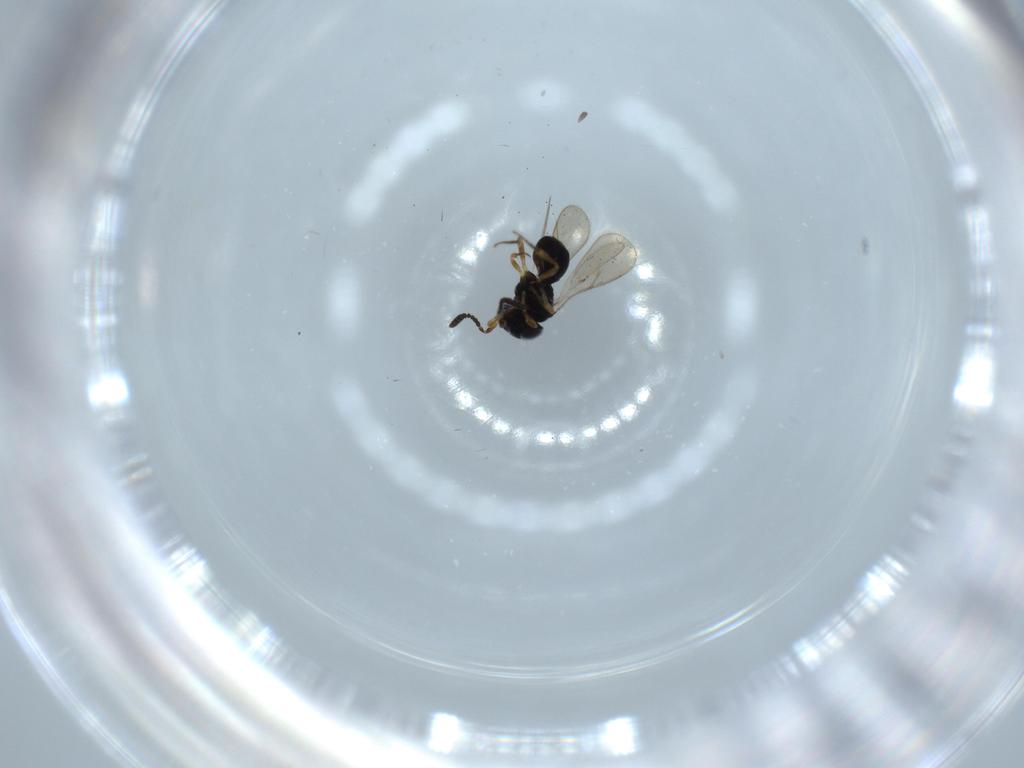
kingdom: Animalia
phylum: Arthropoda
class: Insecta
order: Hymenoptera
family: Scelionidae
